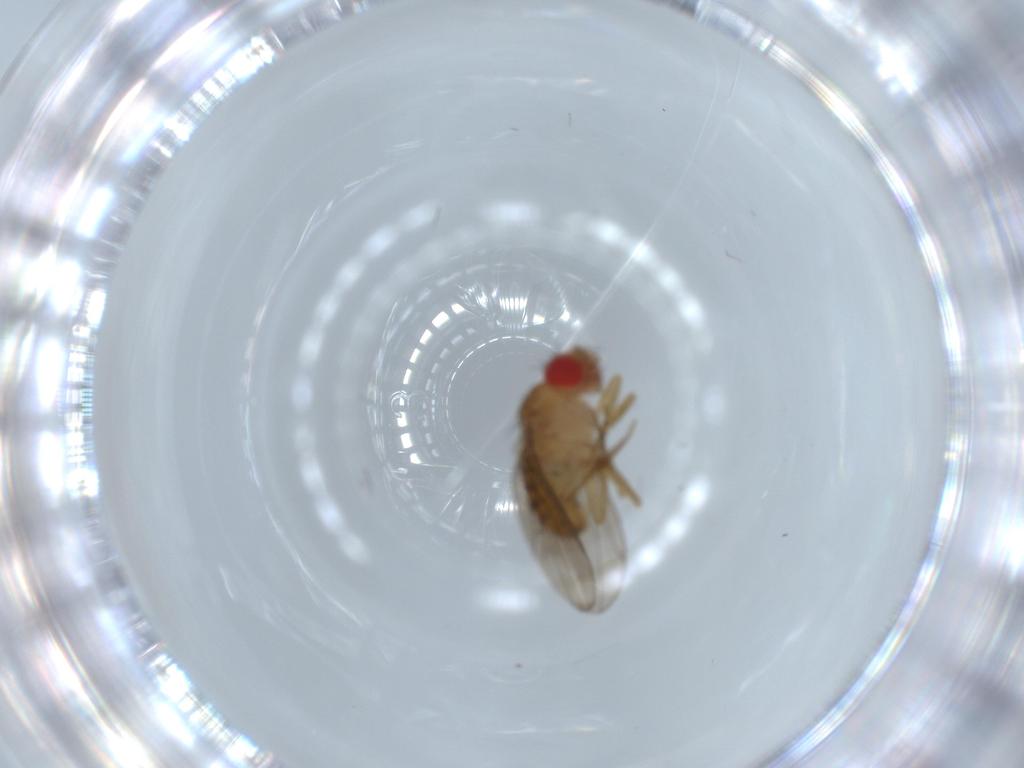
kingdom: Animalia
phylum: Arthropoda
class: Insecta
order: Diptera
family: Drosophilidae
